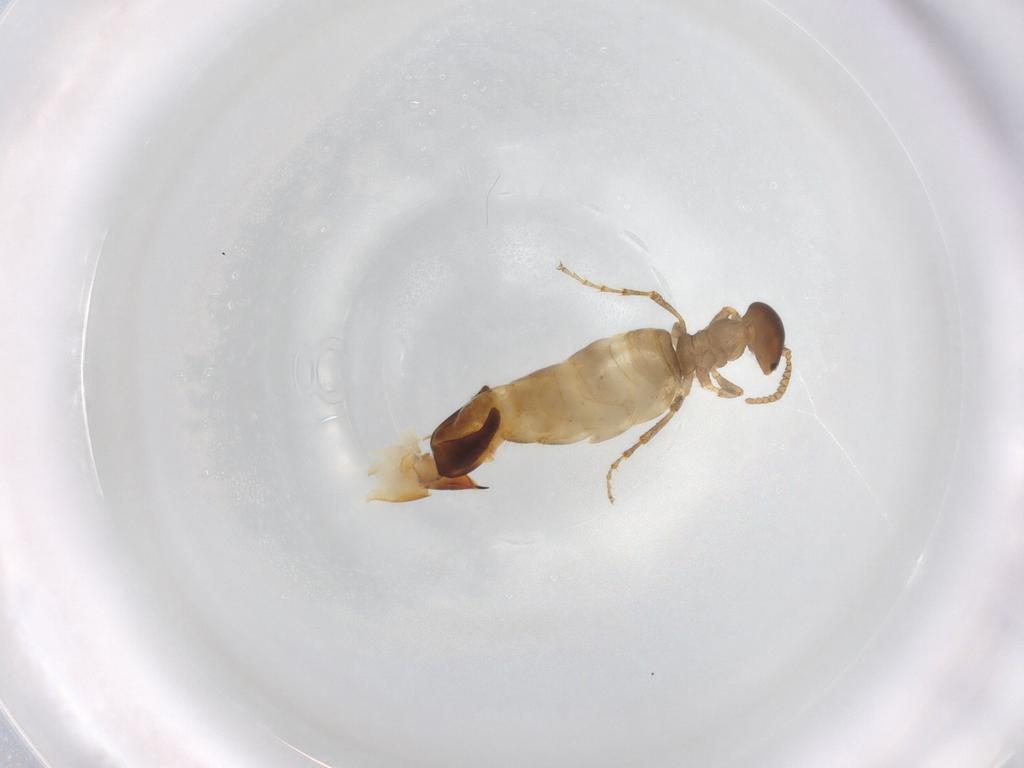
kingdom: Animalia
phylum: Arthropoda
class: Insecta
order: Hymenoptera
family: Thynnidae
